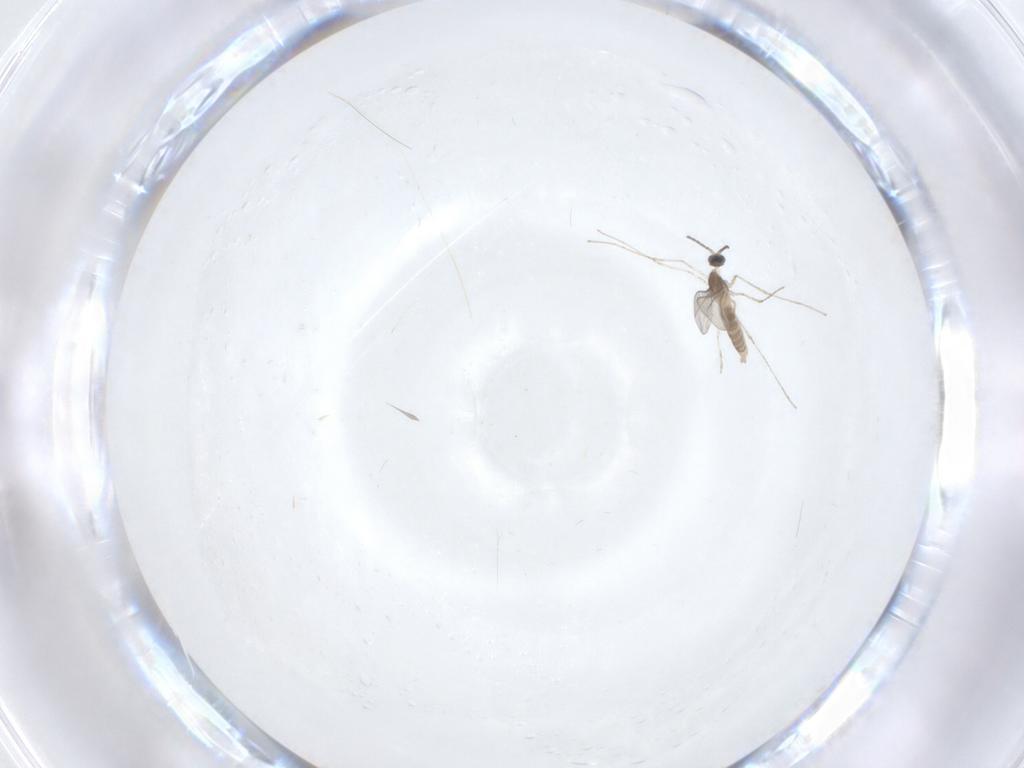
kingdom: Animalia
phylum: Arthropoda
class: Insecta
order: Diptera
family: Cecidomyiidae
